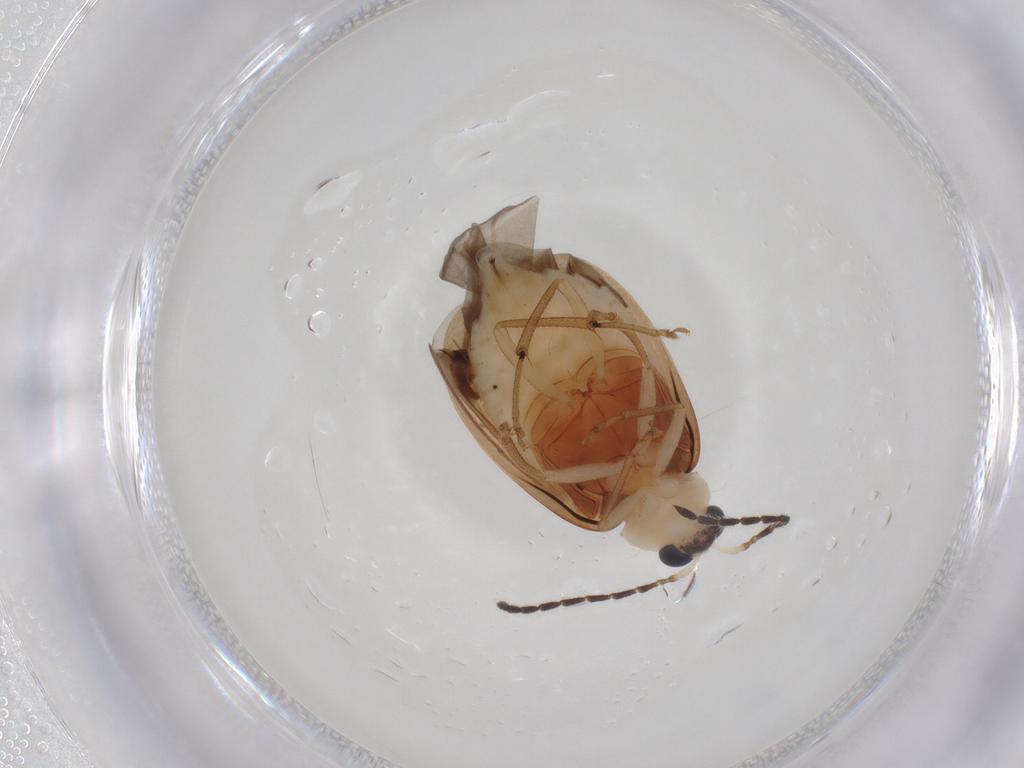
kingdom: Animalia
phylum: Arthropoda
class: Insecta
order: Coleoptera
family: Chrysomelidae
